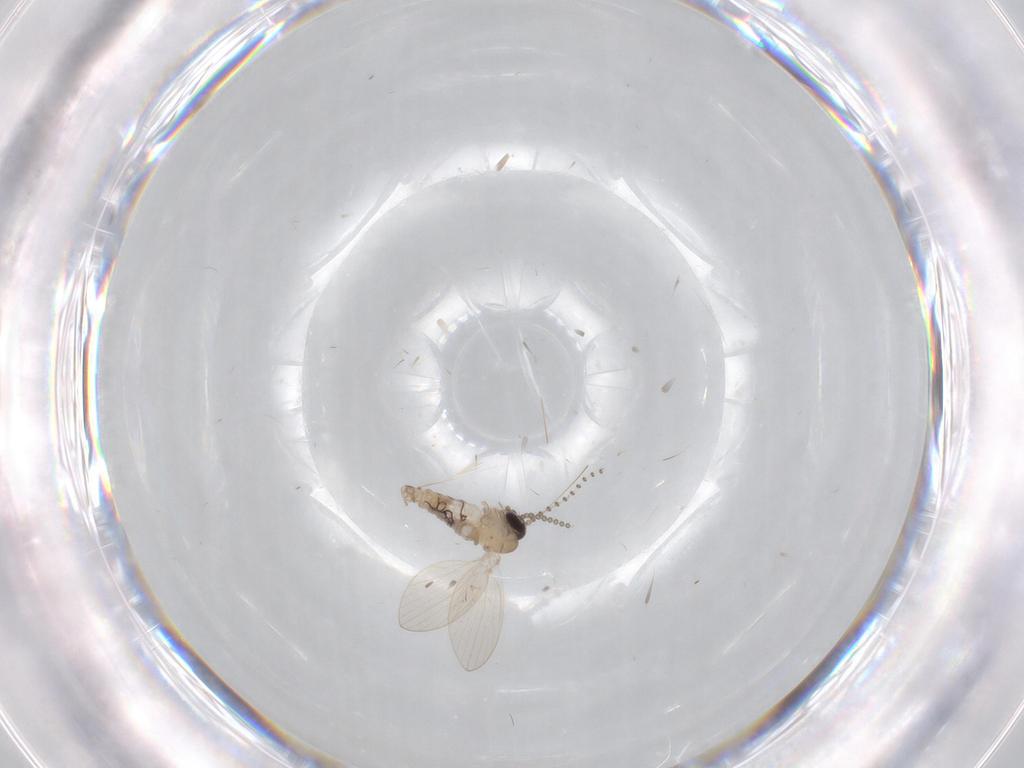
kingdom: Animalia
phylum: Arthropoda
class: Insecta
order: Diptera
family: Psychodidae
